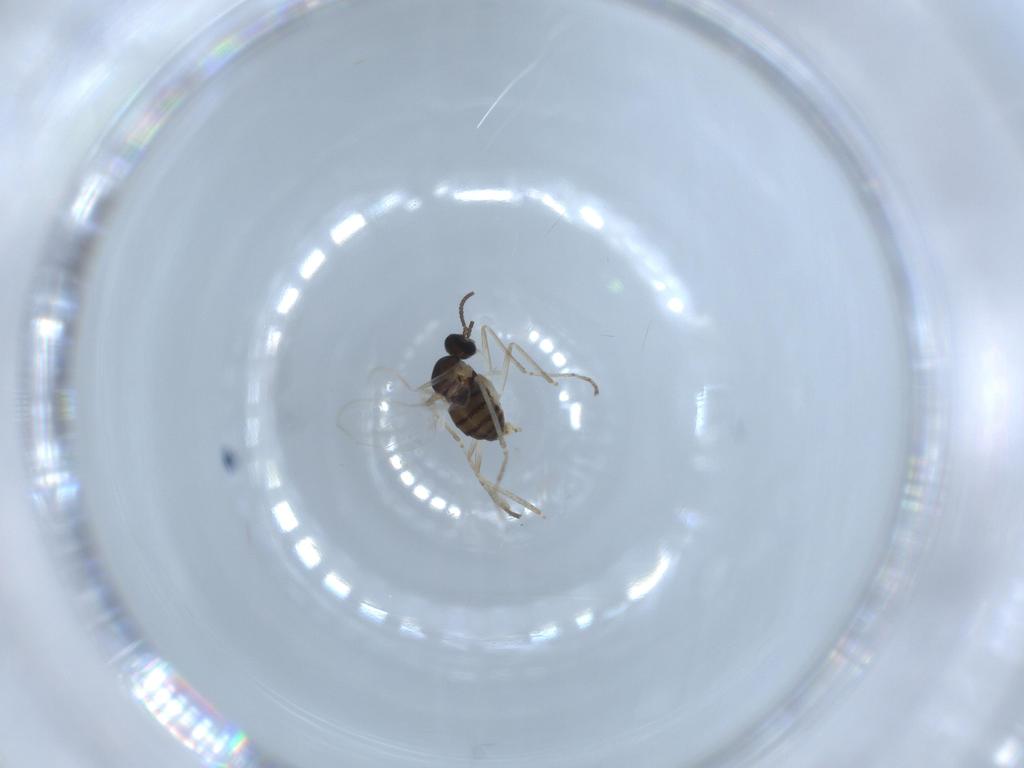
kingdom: Animalia
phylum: Arthropoda
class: Insecta
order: Diptera
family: Cecidomyiidae
